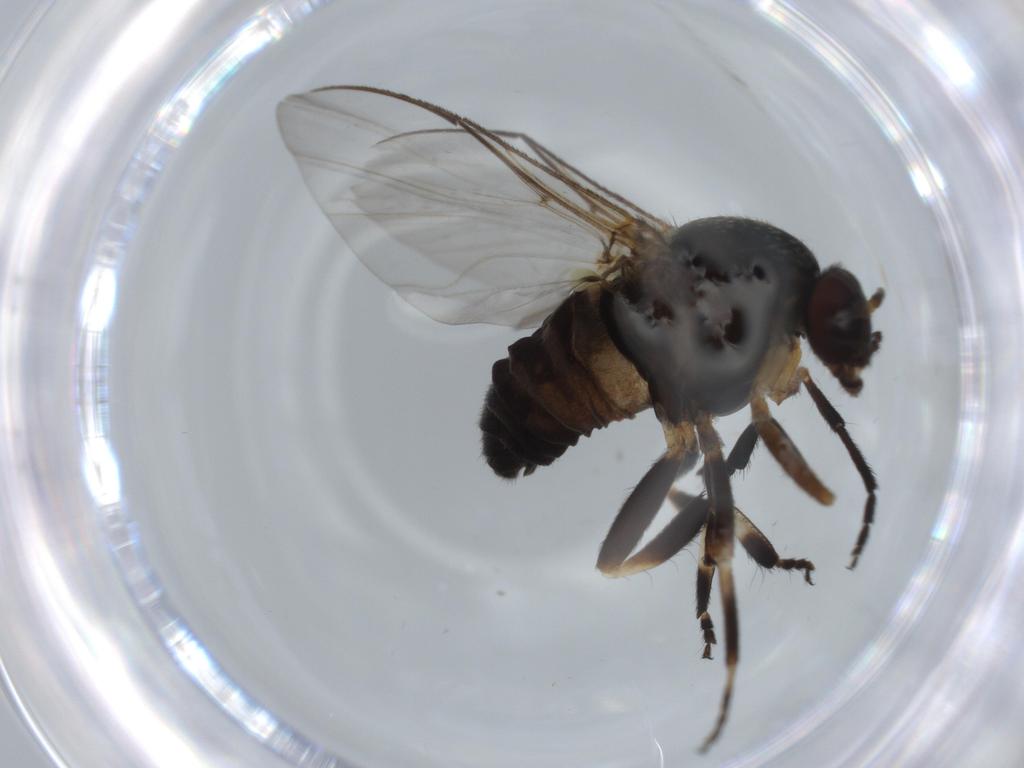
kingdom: Animalia
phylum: Arthropoda
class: Insecta
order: Diptera
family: Phoridae
